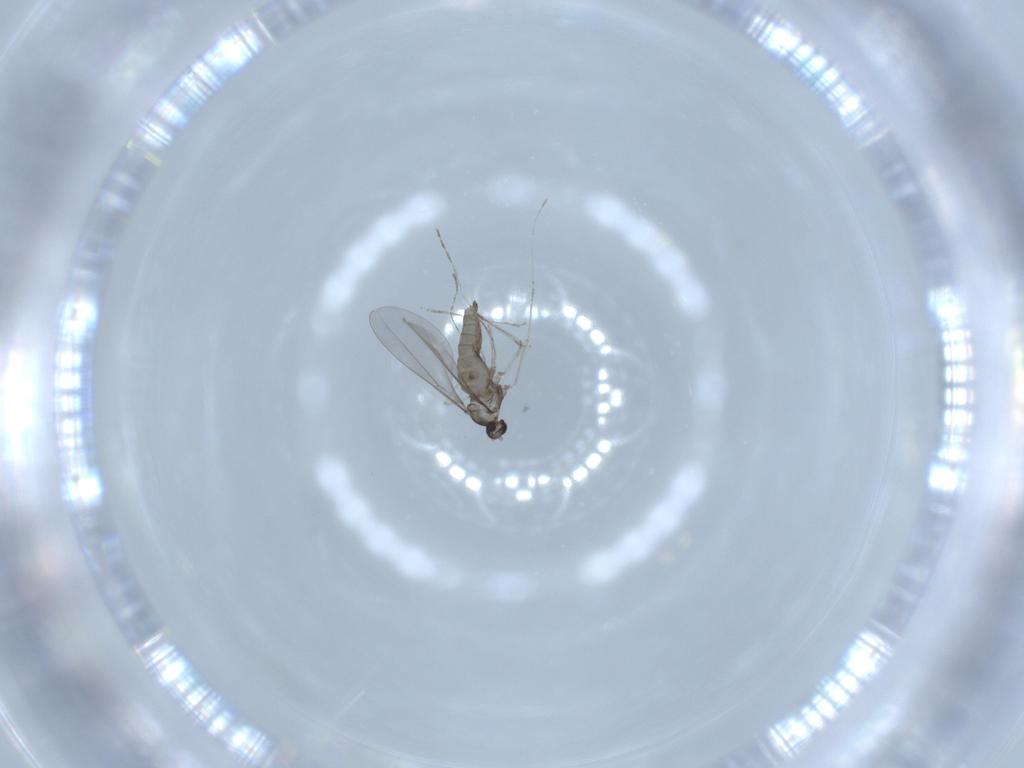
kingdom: Animalia
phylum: Arthropoda
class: Insecta
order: Diptera
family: Cecidomyiidae
